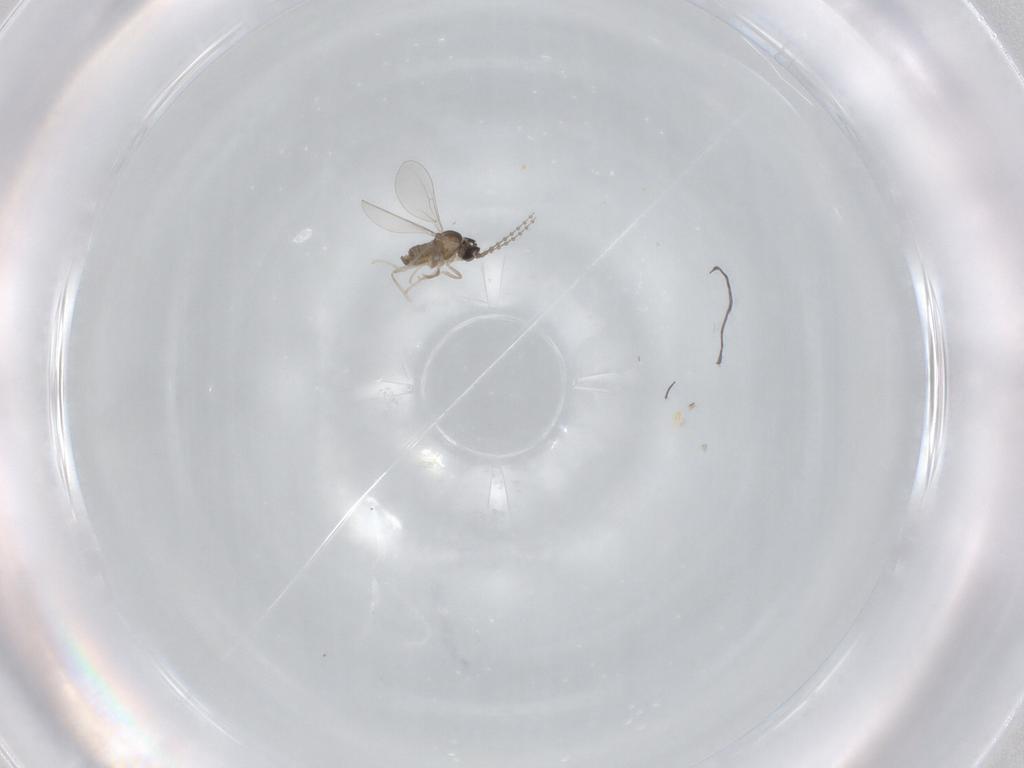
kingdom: Animalia
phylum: Arthropoda
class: Insecta
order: Diptera
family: Cecidomyiidae
